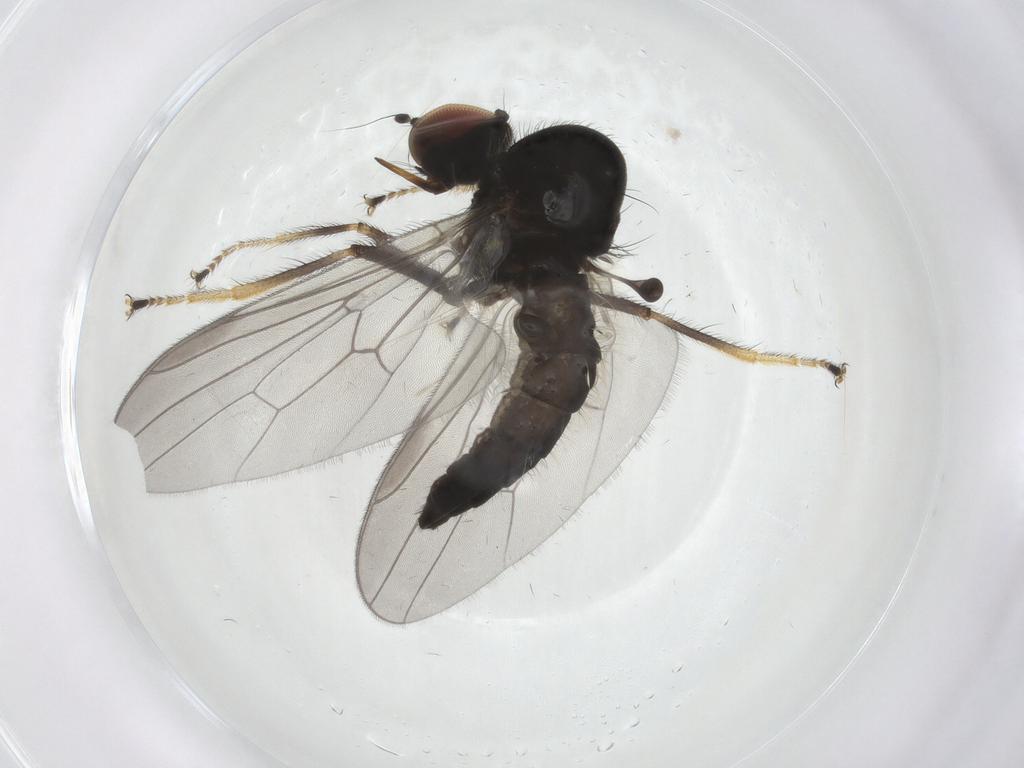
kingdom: Animalia
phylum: Arthropoda
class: Insecta
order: Diptera
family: Hybotidae
